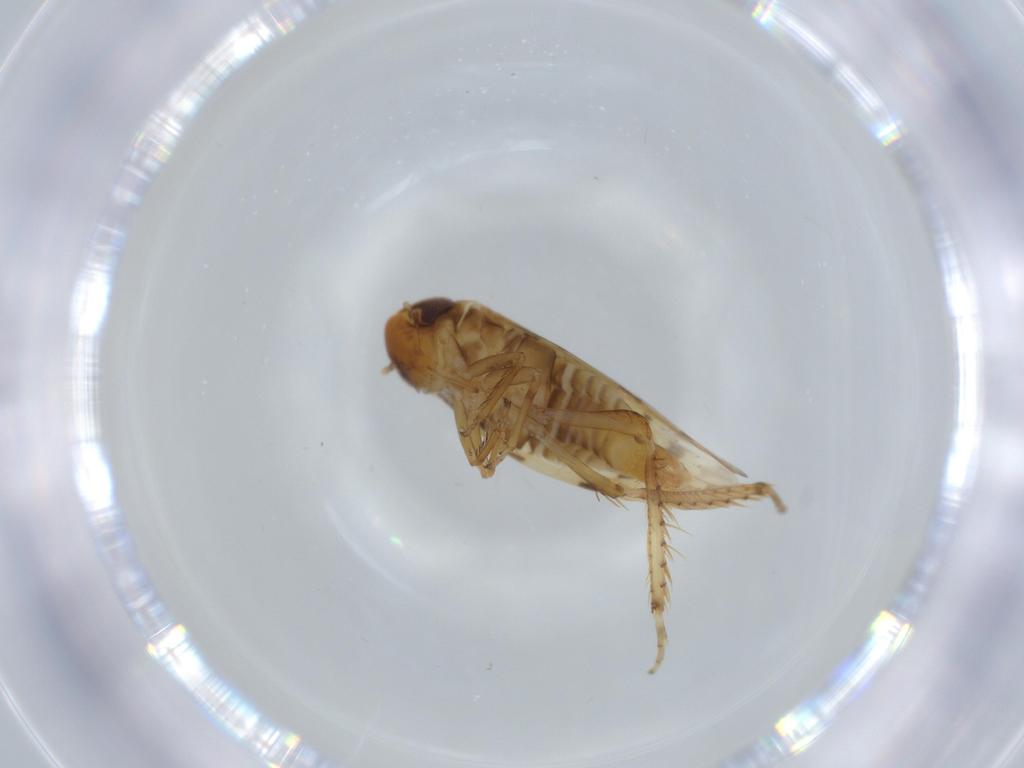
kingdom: Animalia
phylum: Arthropoda
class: Insecta
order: Hemiptera
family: Cicadellidae
